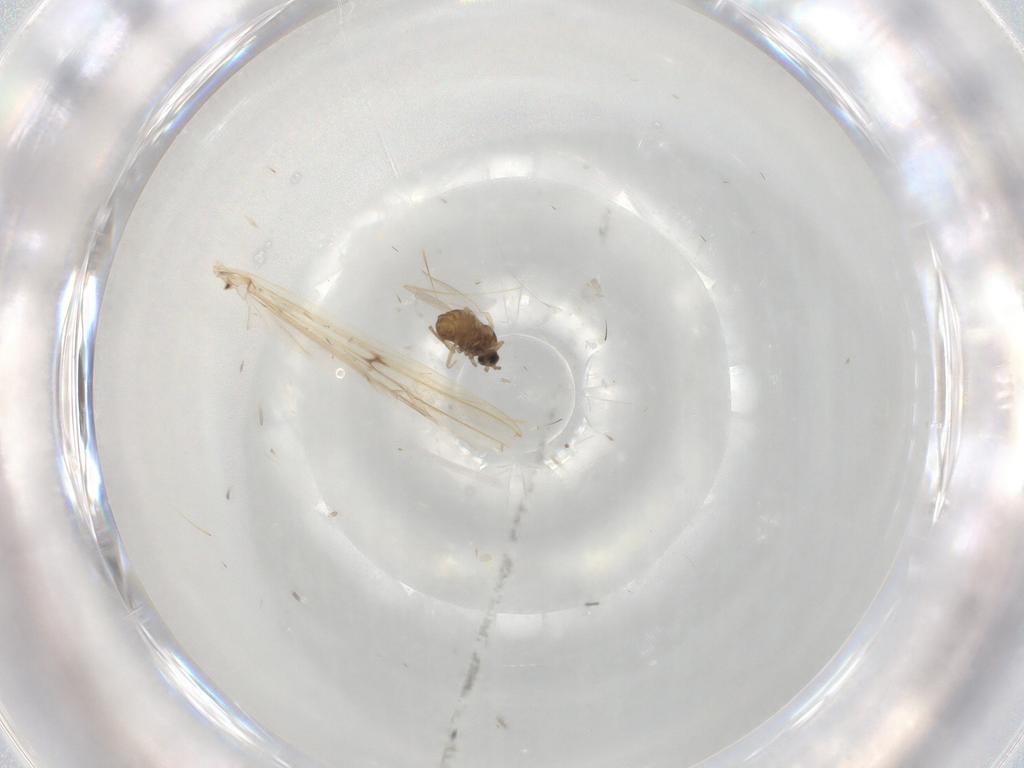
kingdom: Animalia
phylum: Arthropoda
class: Insecta
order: Diptera
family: Cecidomyiidae
